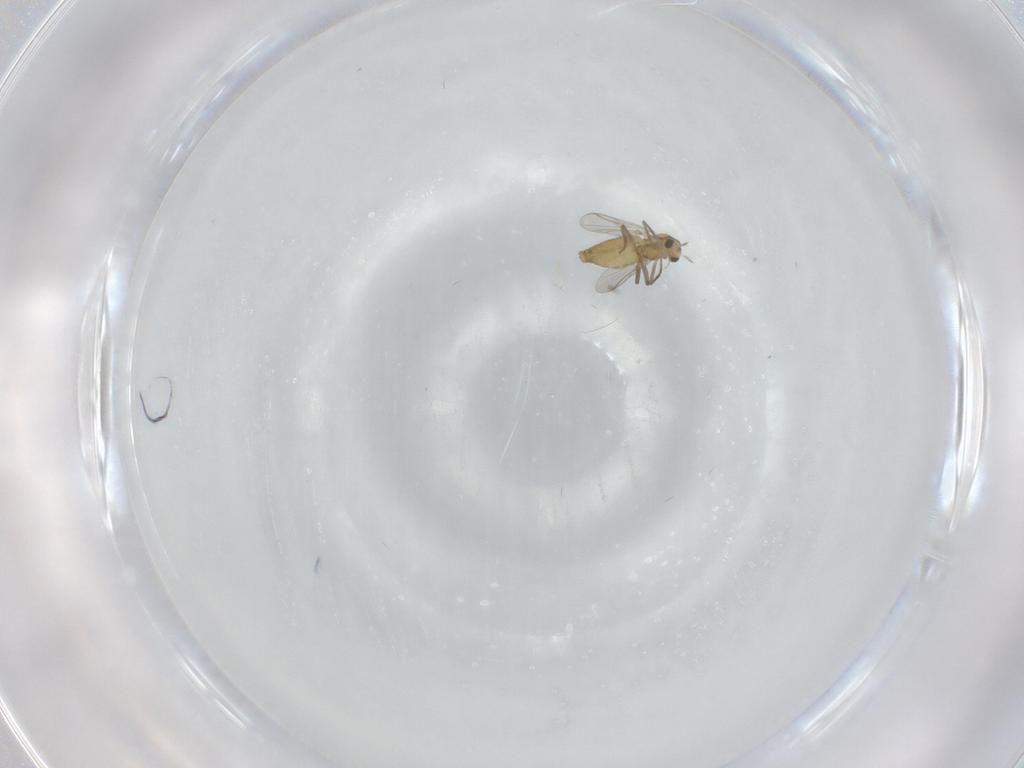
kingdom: Animalia
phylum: Arthropoda
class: Insecta
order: Diptera
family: Chironomidae
